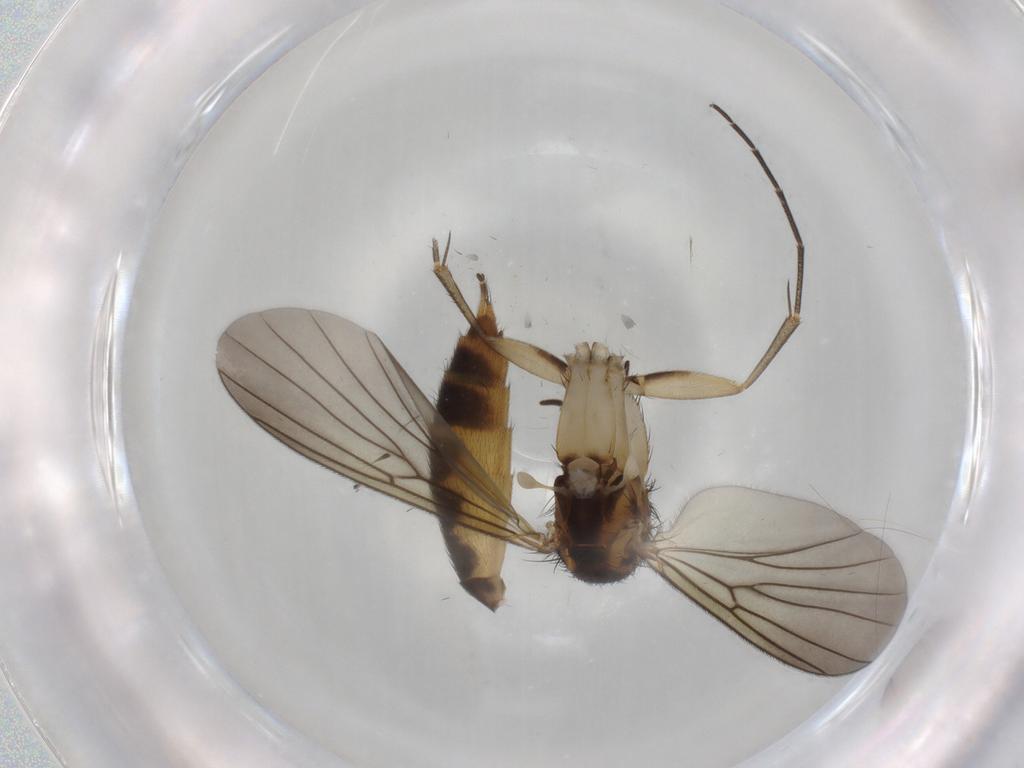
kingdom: Animalia
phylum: Arthropoda
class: Insecta
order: Diptera
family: Mycetophilidae
